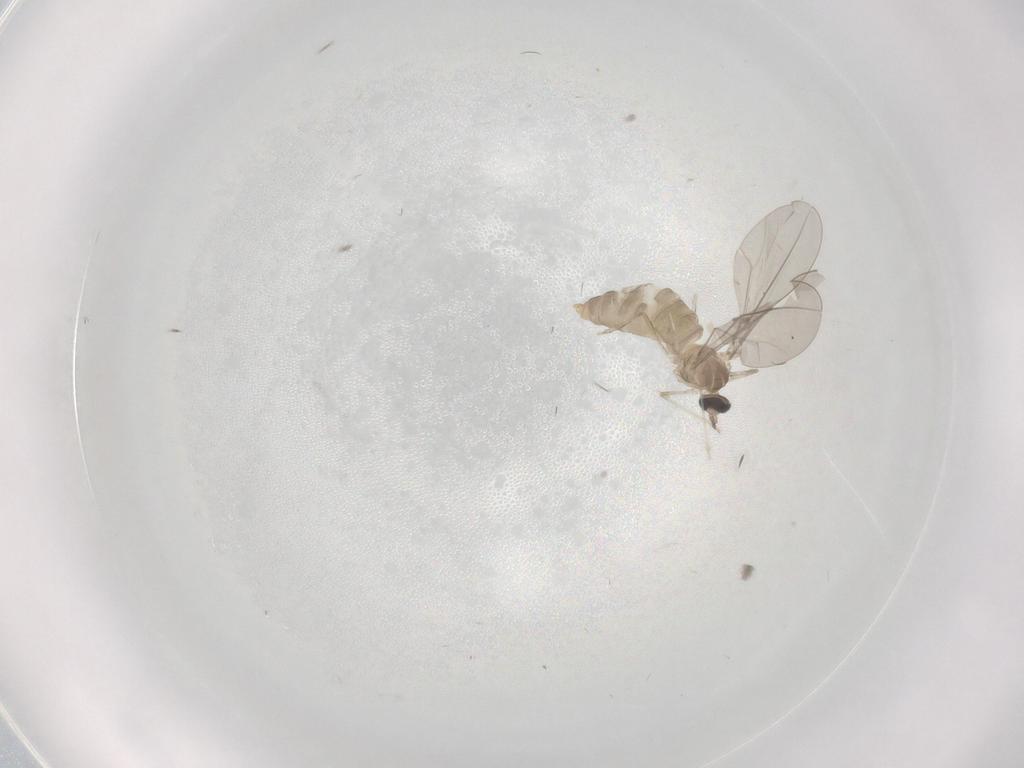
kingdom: Animalia
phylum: Arthropoda
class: Insecta
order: Diptera
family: Cecidomyiidae
